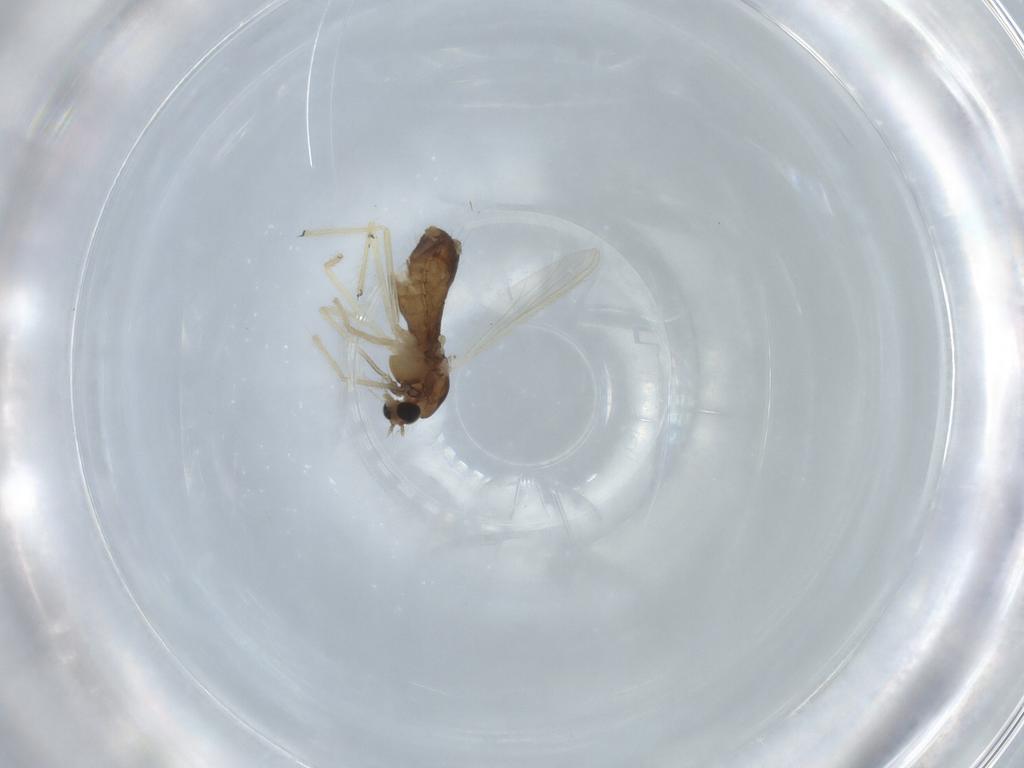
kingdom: Animalia
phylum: Arthropoda
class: Insecta
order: Diptera
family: Chironomidae
